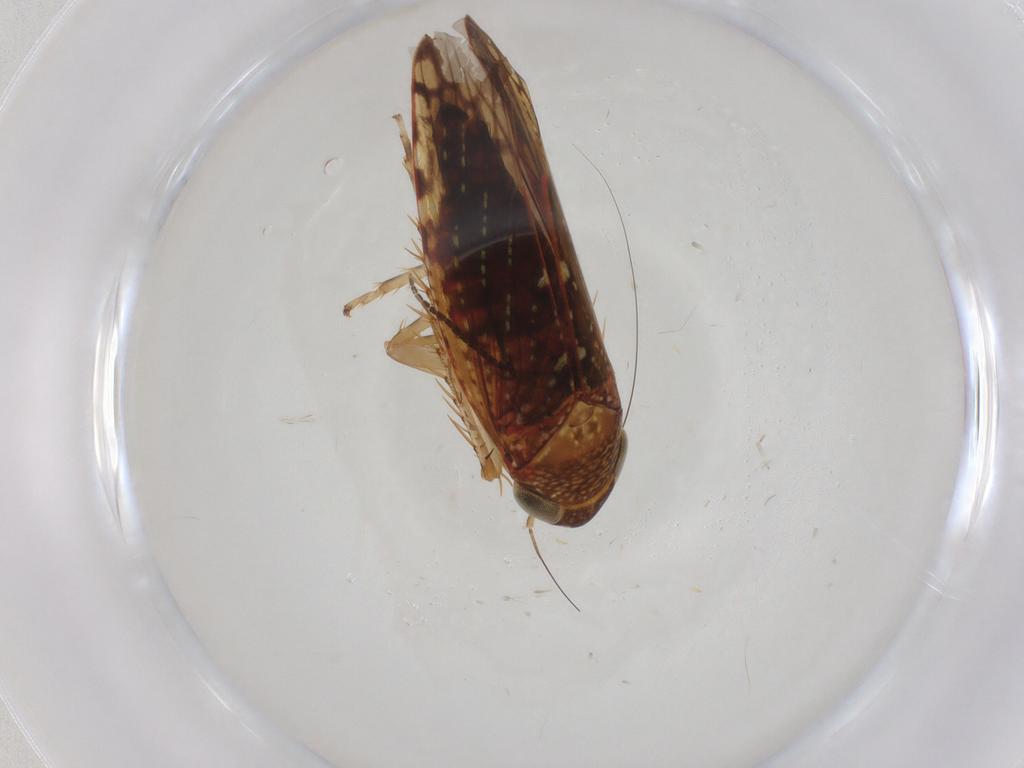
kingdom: Animalia
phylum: Arthropoda
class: Insecta
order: Hemiptera
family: Cicadellidae
